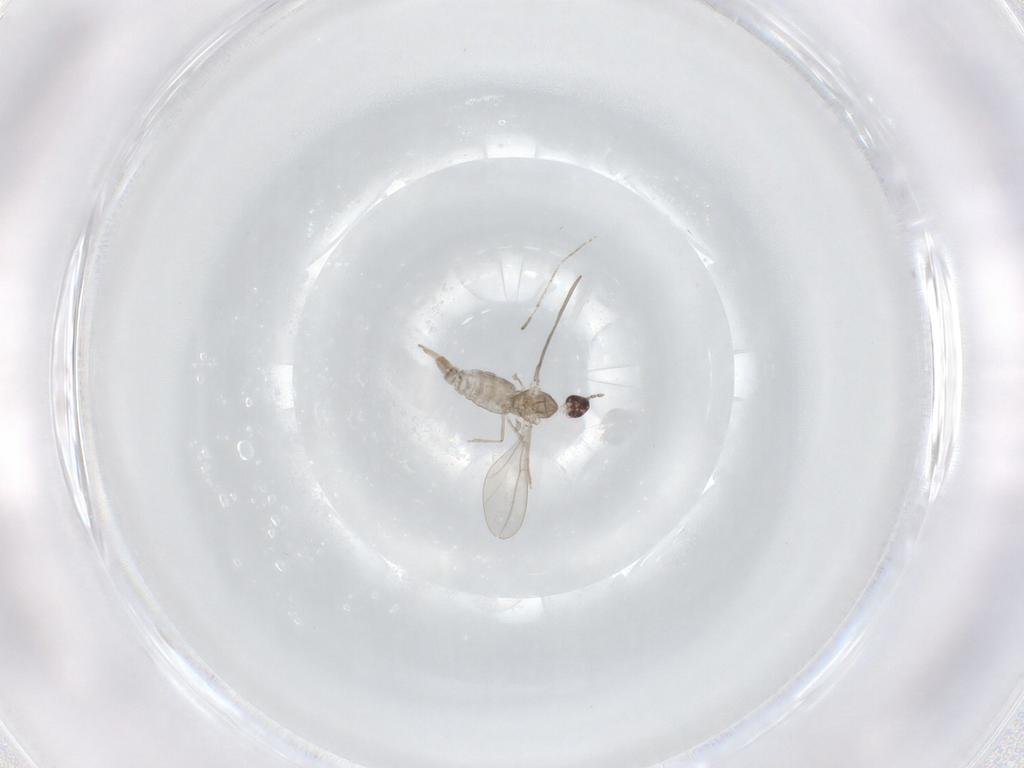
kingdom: Animalia
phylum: Arthropoda
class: Insecta
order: Diptera
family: Cecidomyiidae
